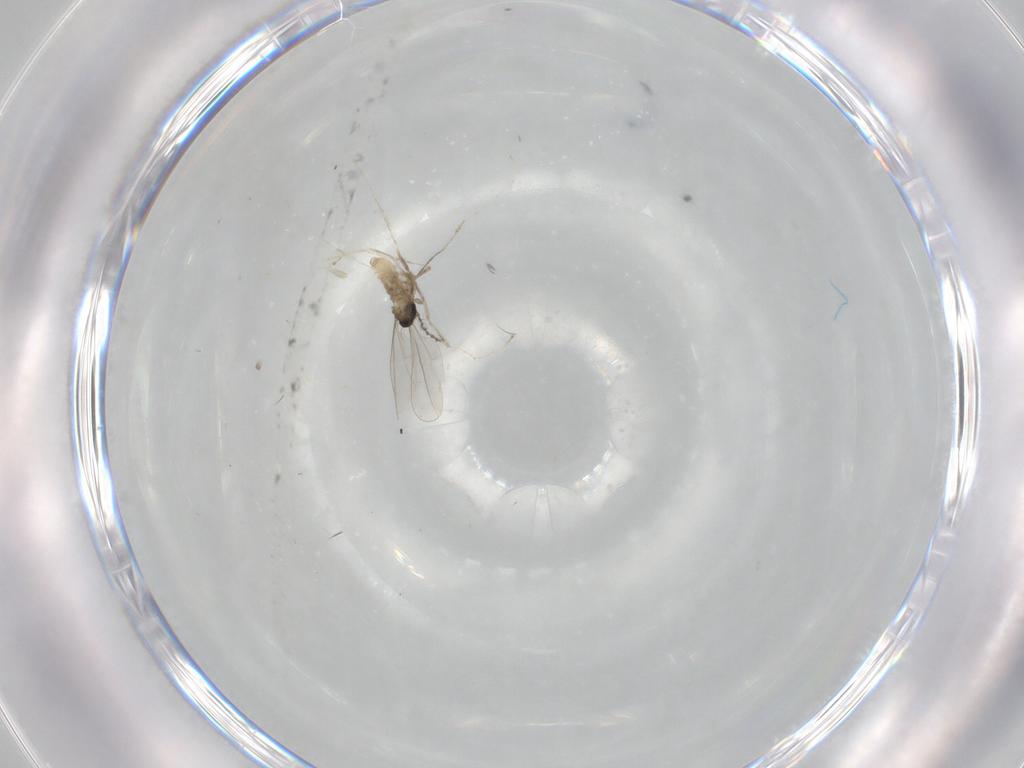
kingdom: Animalia
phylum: Arthropoda
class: Insecta
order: Diptera
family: Cecidomyiidae
